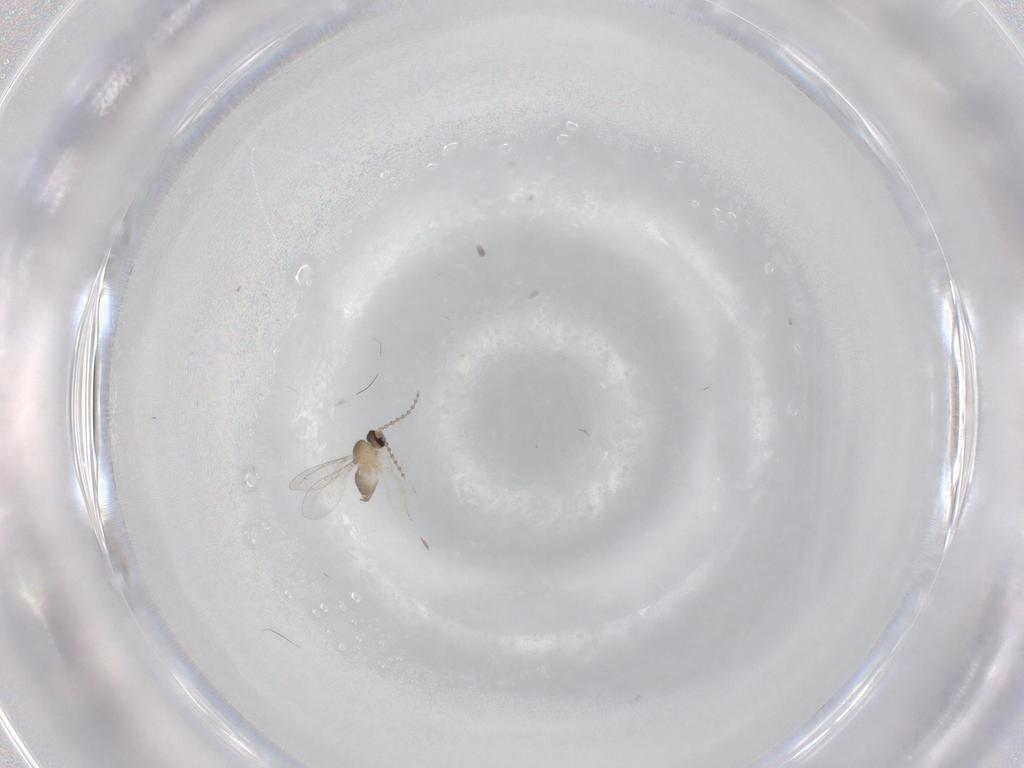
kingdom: Animalia
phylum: Arthropoda
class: Insecta
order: Diptera
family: Cecidomyiidae
